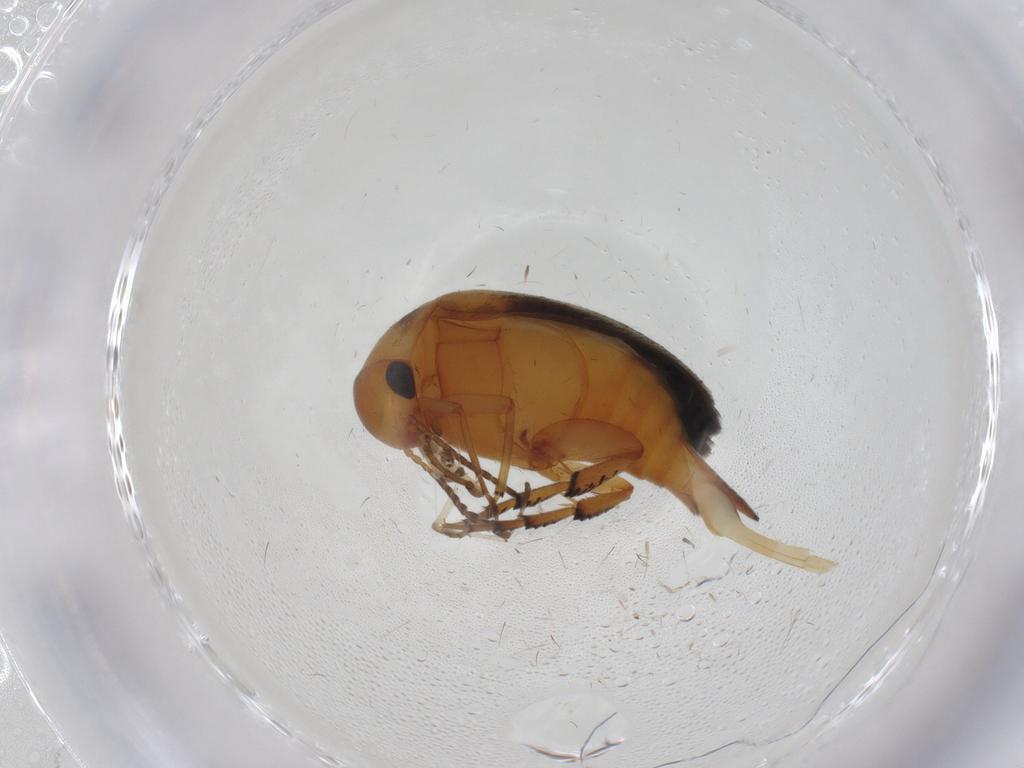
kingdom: Animalia
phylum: Arthropoda
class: Insecta
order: Coleoptera
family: Mordellidae
